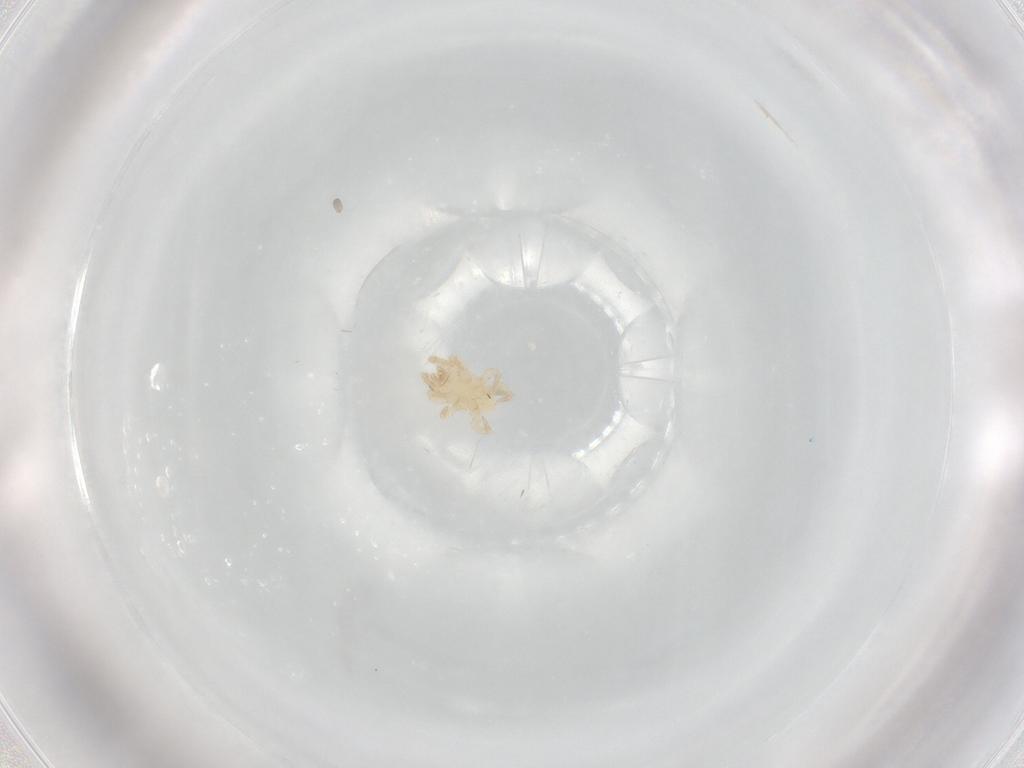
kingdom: Animalia
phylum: Arthropoda
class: Arachnida
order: Mesostigmata
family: Parasitidae
